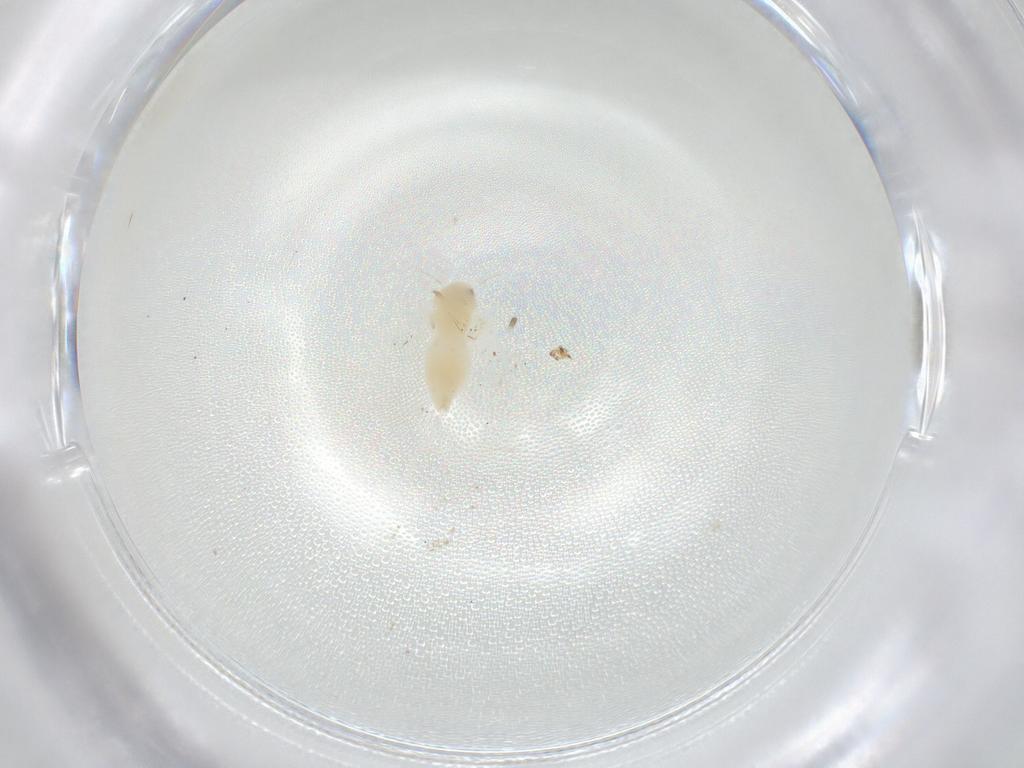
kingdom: Animalia
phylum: Arthropoda
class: Insecta
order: Hemiptera
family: Aleyrodidae
